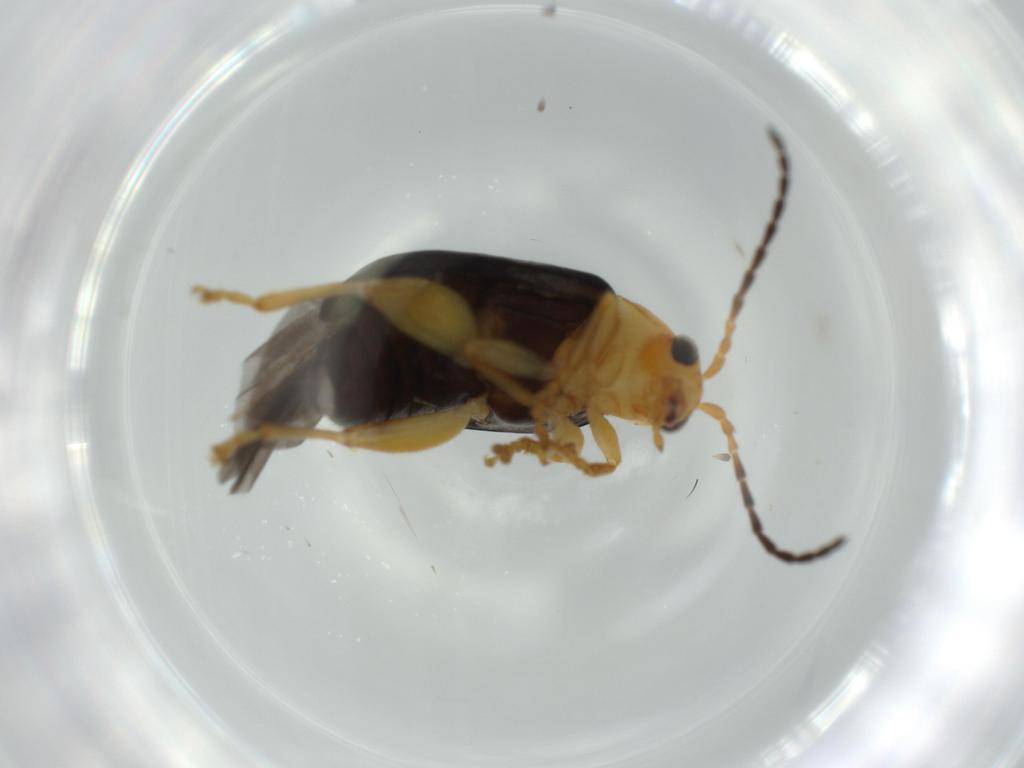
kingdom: Animalia
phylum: Arthropoda
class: Insecta
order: Coleoptera
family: Chrysomelidae
